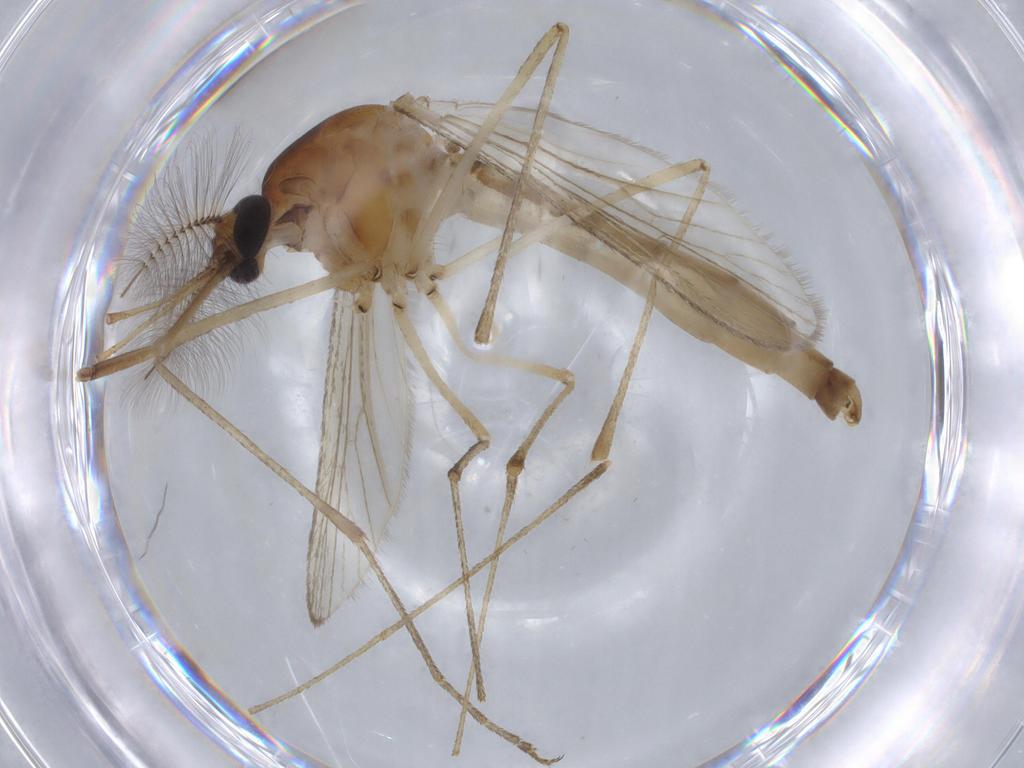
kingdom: Animalia
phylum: Arthropoda
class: Insecta
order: Diptera
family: Culicidae
